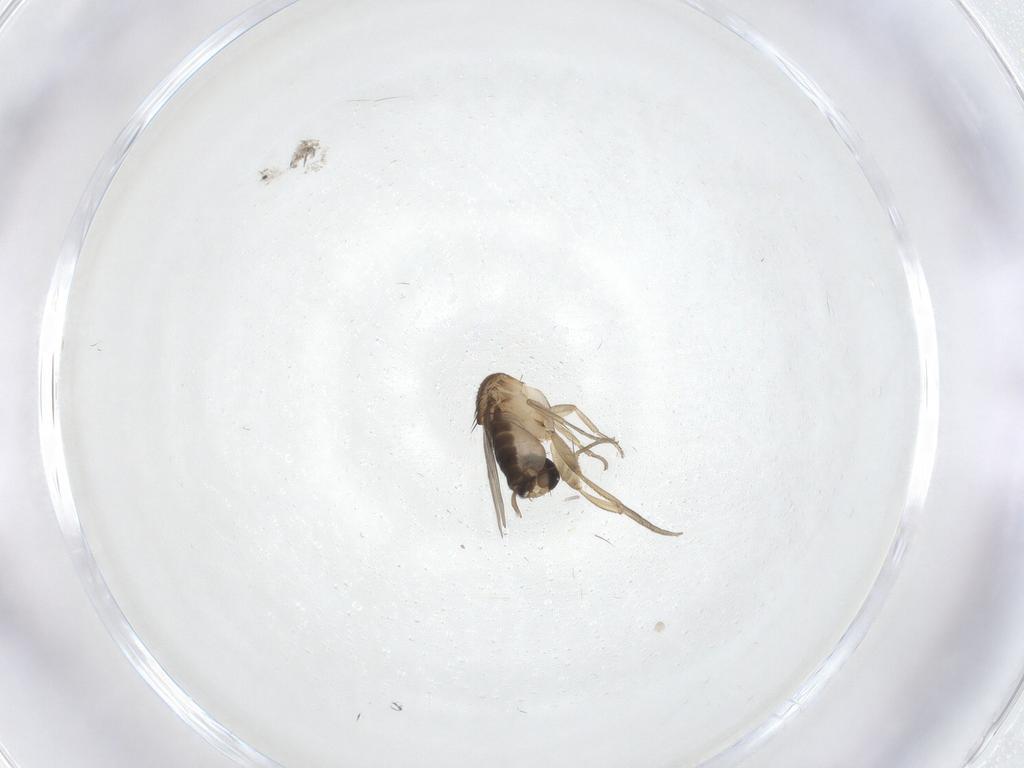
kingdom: Animalia
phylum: Arthropoda
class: Insecta
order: Diptera
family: Phoridae
